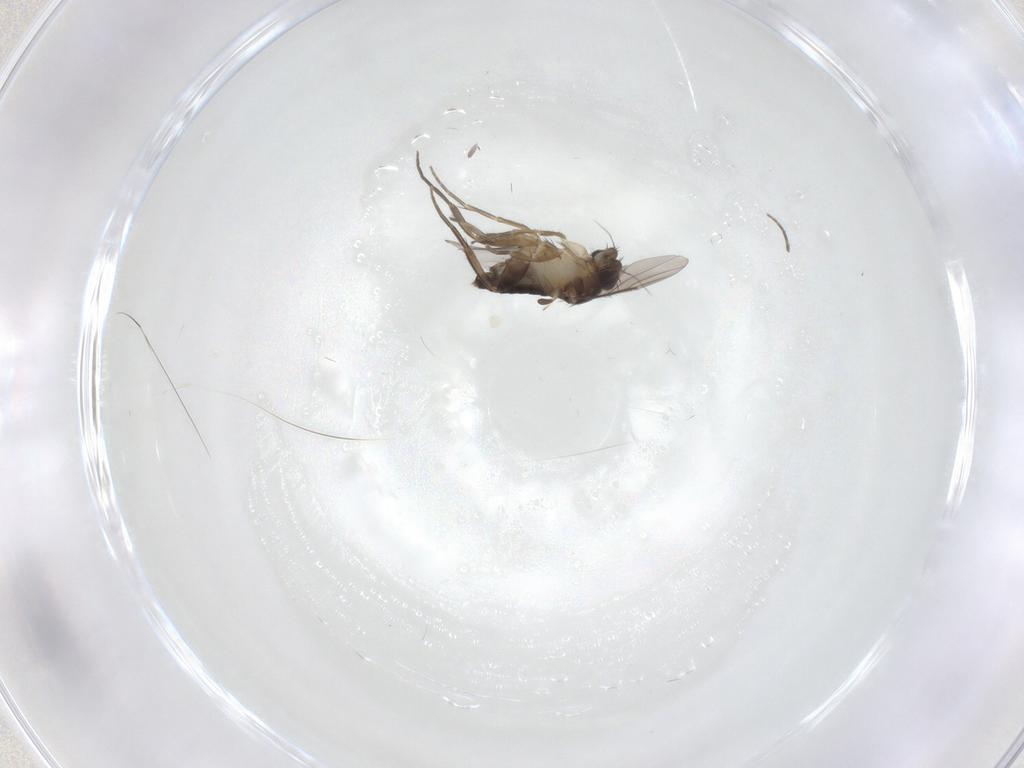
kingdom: Animalia
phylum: Arthropoda
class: Insecta
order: Diptera
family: Phoridae
